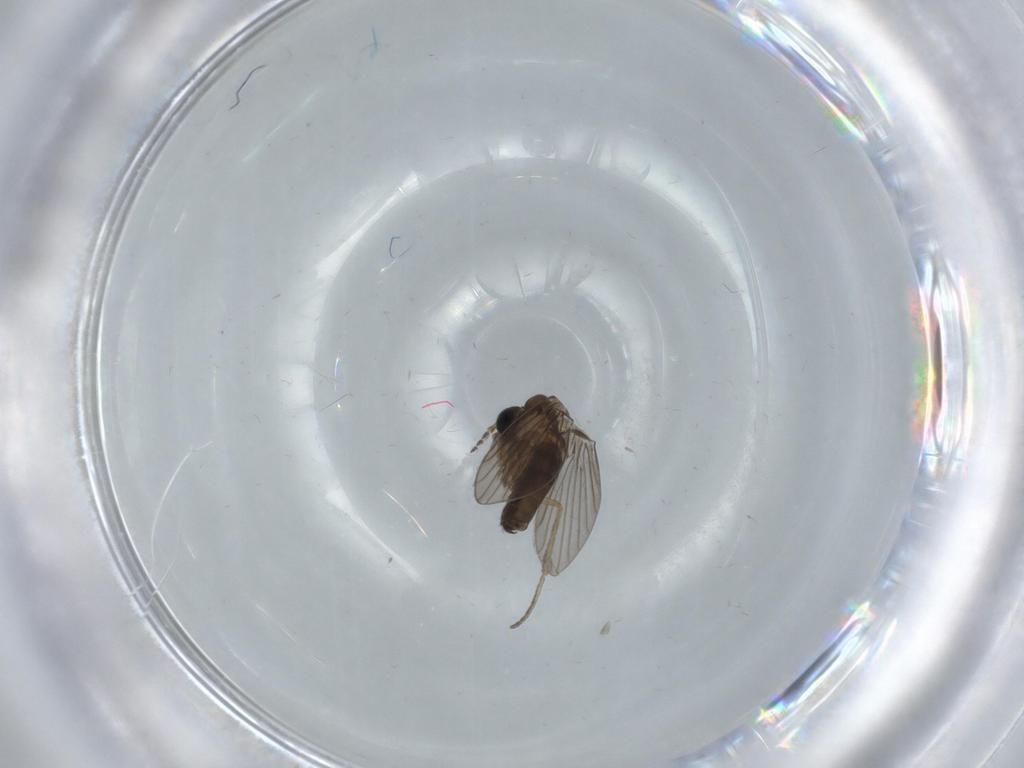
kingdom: Animalia
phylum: Arthropoda
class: Insecta
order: Diptera
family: Psychodidae
